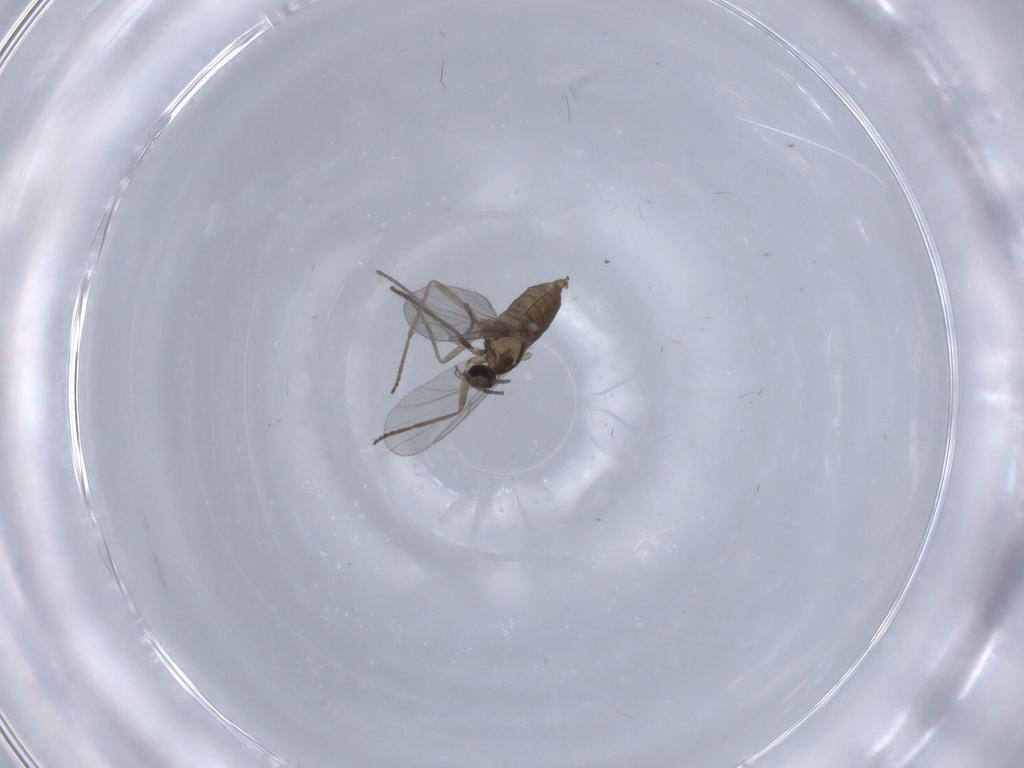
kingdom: Animalia
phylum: Arthropoda
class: Insecta
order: Diptera
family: Cecidomyiidae
